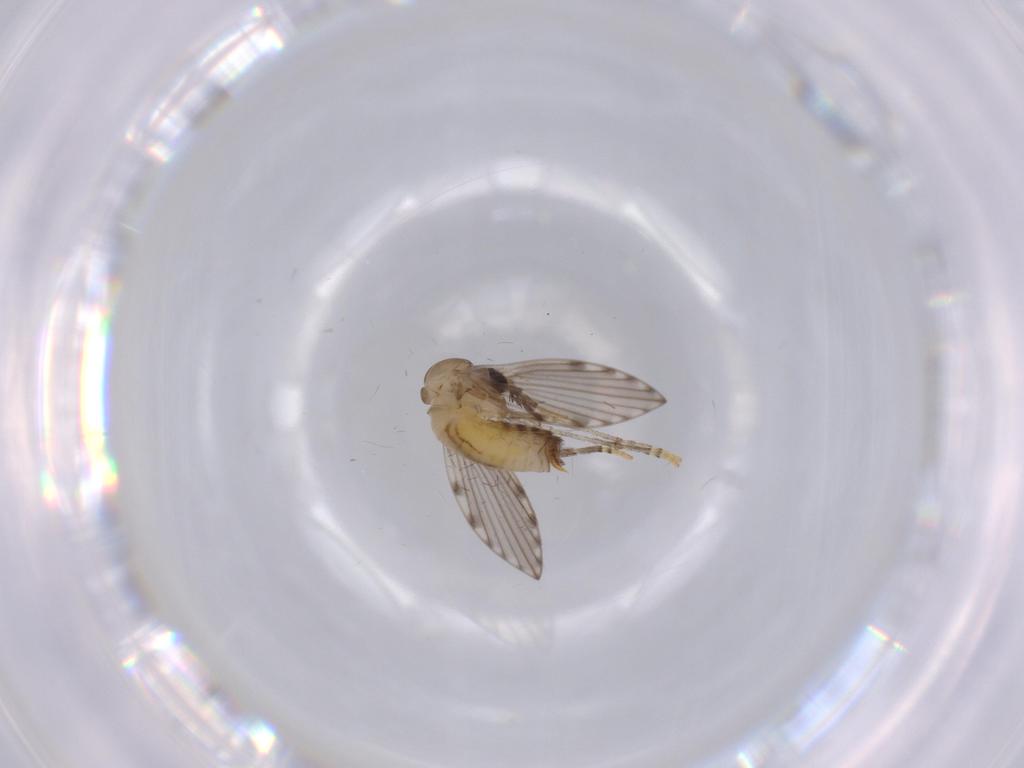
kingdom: Animalia
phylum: Arthropoda
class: Insecta
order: Diptera
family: Psychodidae
